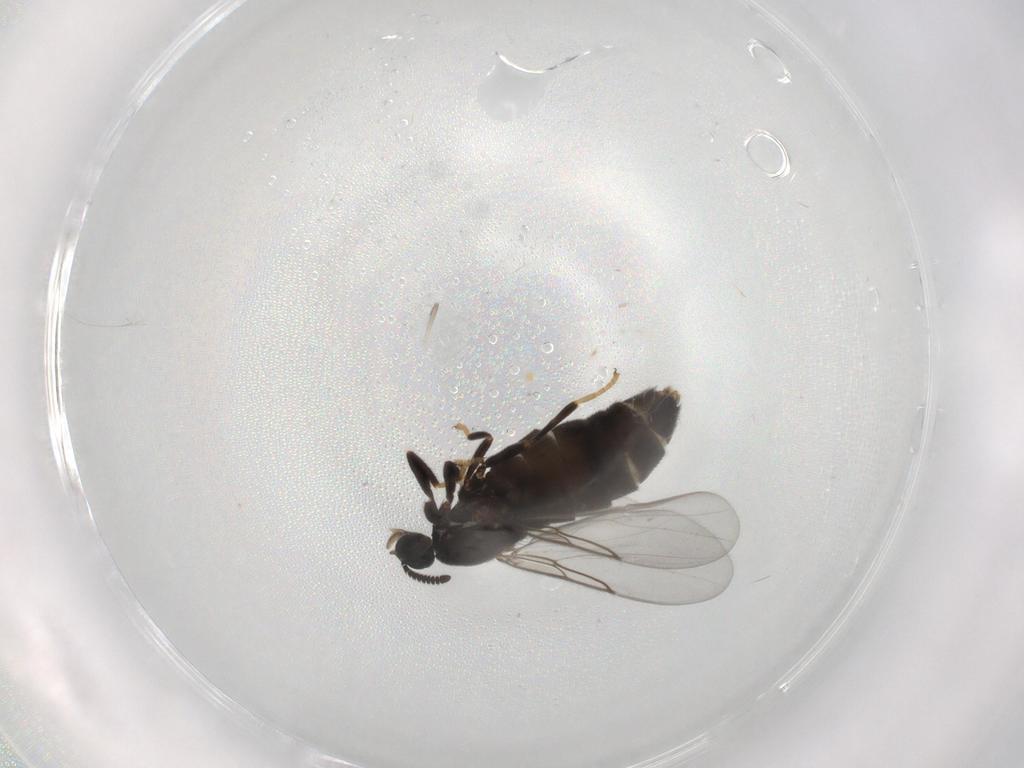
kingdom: Animalia
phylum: Arthropoda
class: Insecta
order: Diptera
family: Scatopsidae
